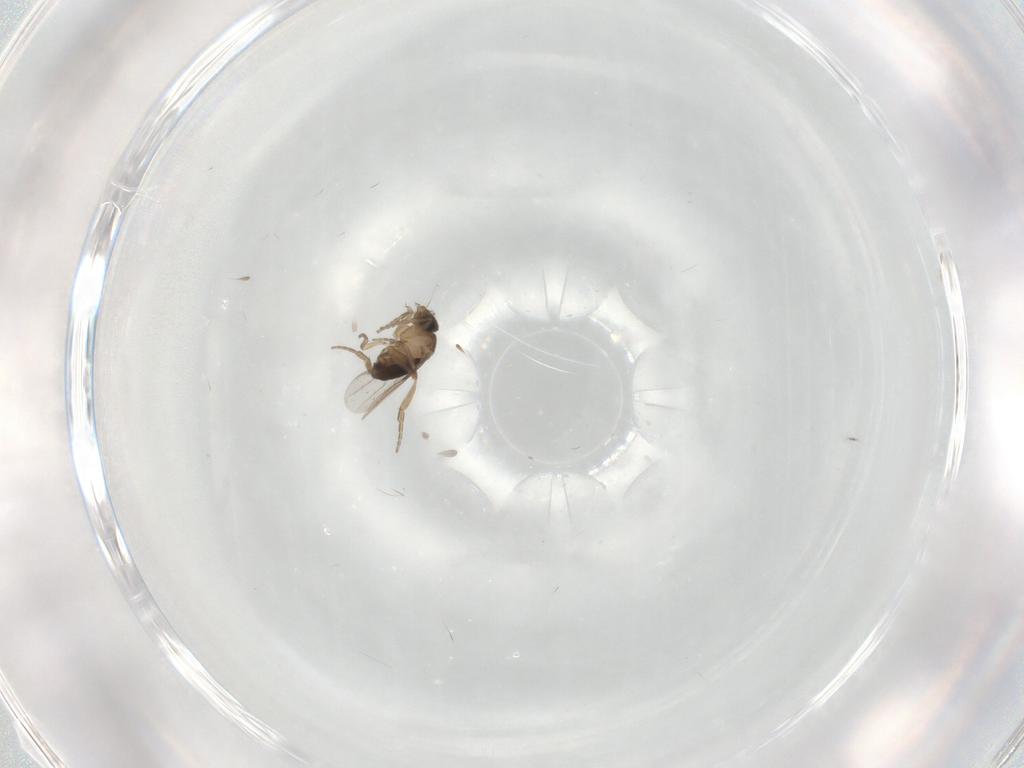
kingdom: Animalia
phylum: Arthropoda
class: Insecta
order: Diptera
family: Phoridae
